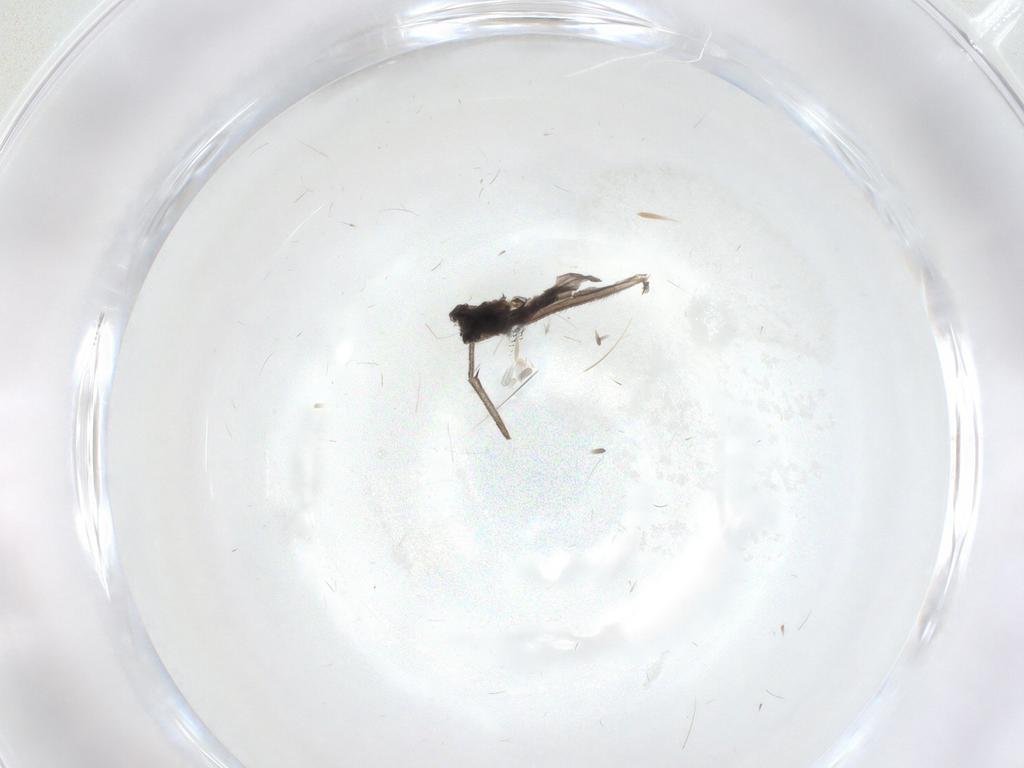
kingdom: Animalia
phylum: Arthropoda
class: Insecta
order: Diptera
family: Mycetophilidae
